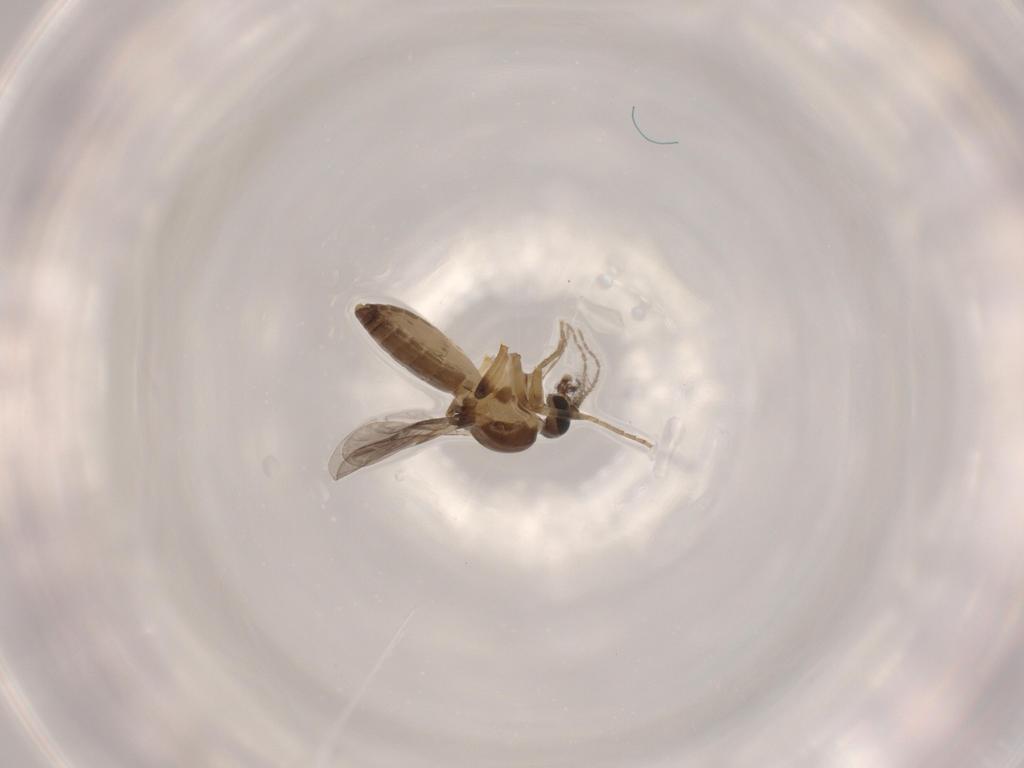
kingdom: Animalia
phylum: Arthropoda
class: Insecta
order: Diptera
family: Ceratopogonidae
